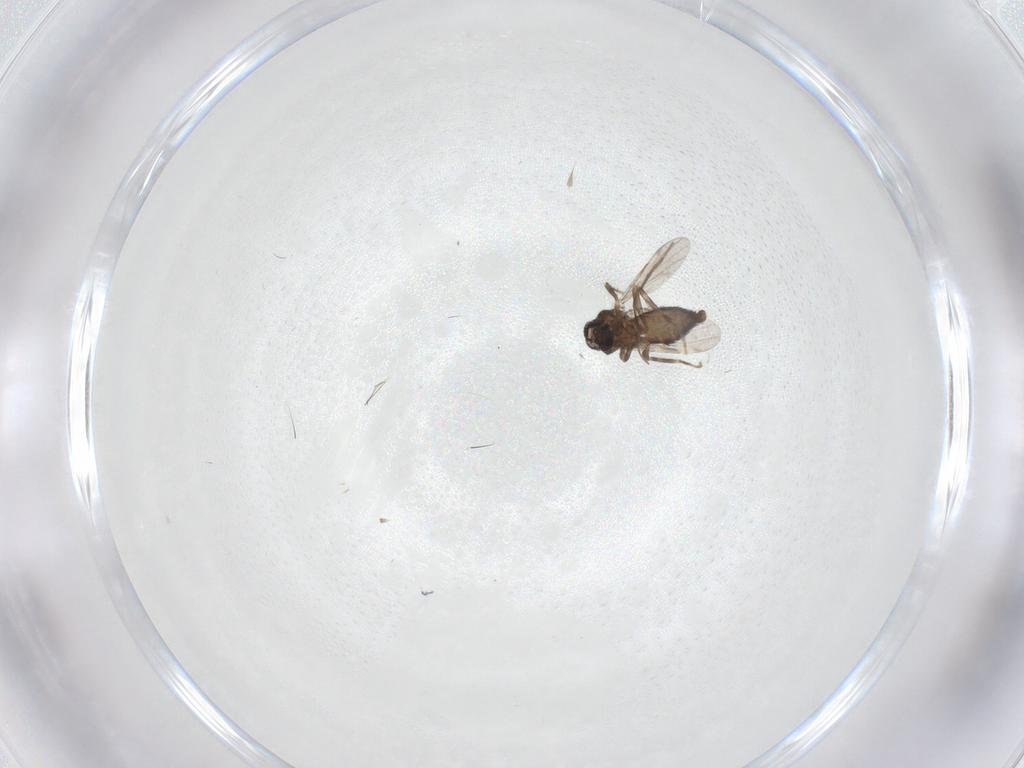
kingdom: Animalia
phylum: Arthropoda
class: Insecta
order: Diptera
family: Ceratopogonidae
